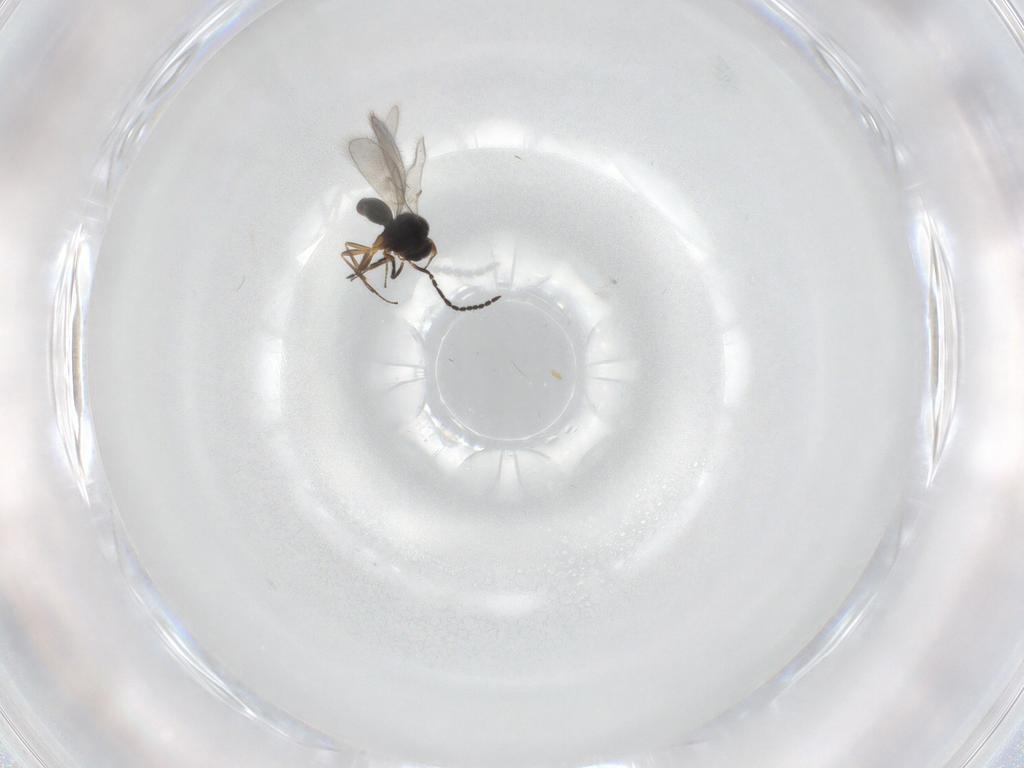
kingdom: Animalia
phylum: Arthropoda
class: Insecta
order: Hymenoptera
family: Scelionidae
